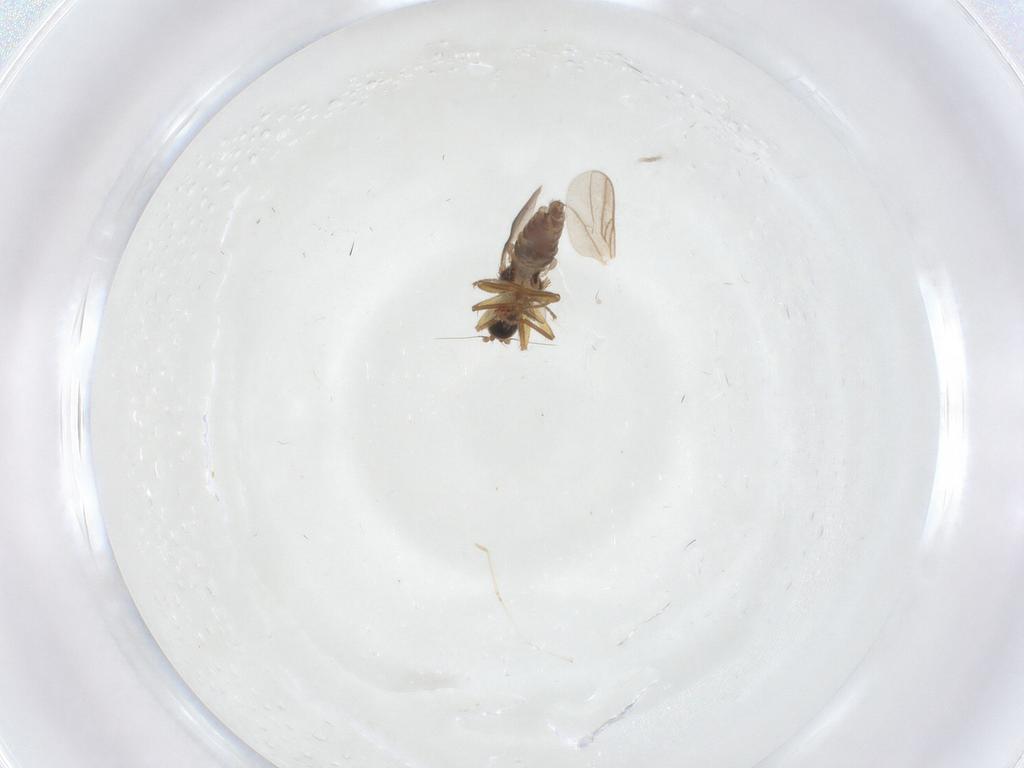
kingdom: Animalia
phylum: Arthropoda
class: Insecta
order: Diptera
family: Hybotidae
